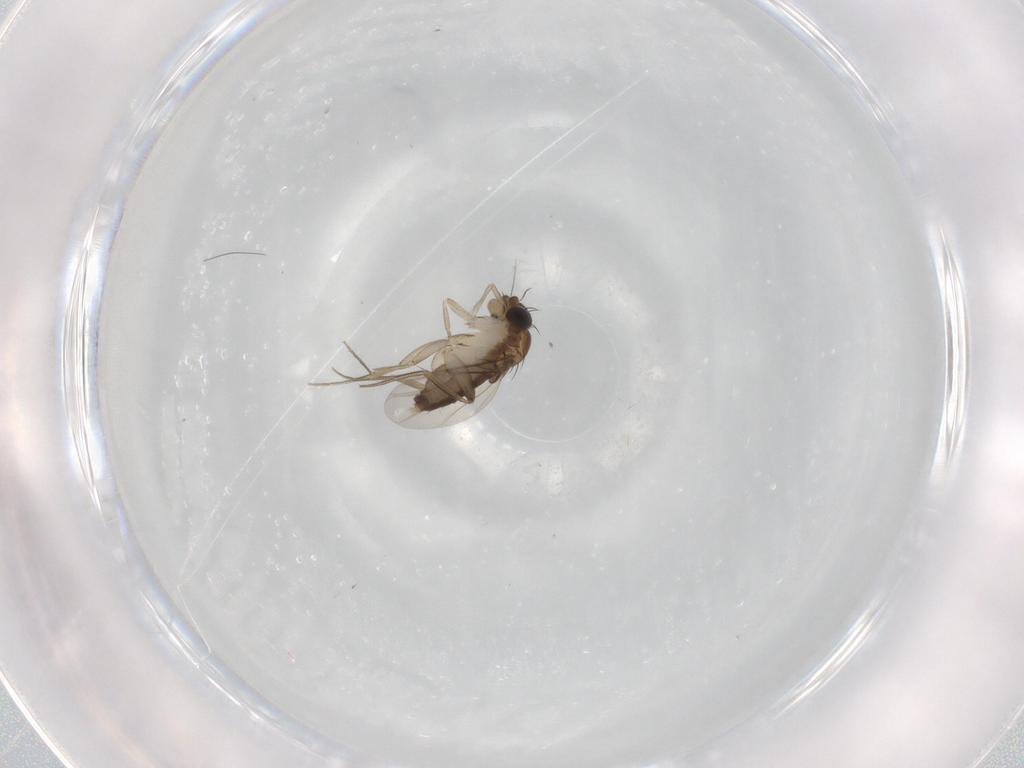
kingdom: Animalia
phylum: Arthropoda
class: Insecta
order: Diptera
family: Phoridae
